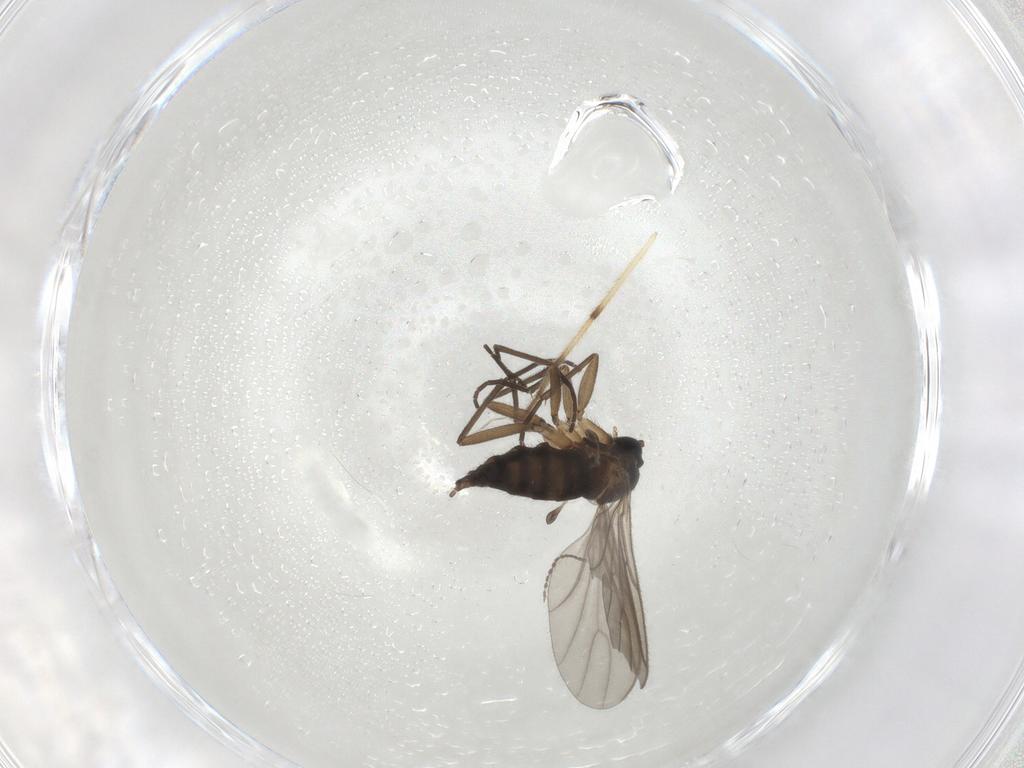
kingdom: Animalia
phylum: Arthropoda
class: Insecta
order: Diptera
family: Sciaridae
